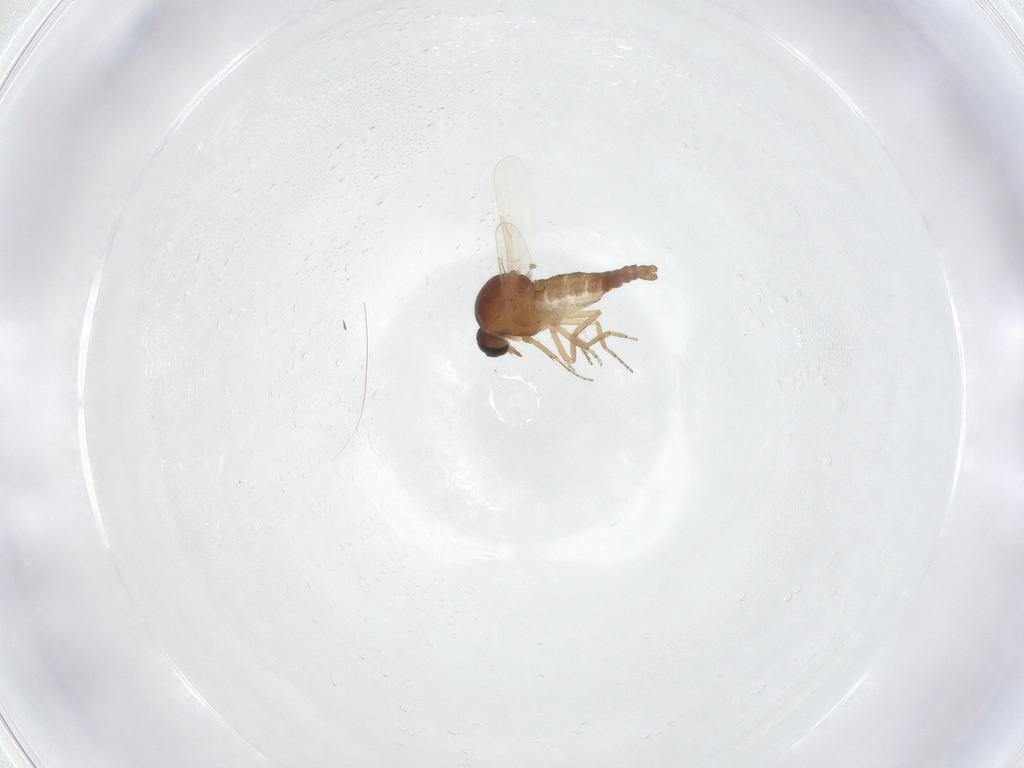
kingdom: Animalia
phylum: Arthropoda
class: Insecta
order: Diptera
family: Ceratopogonidae
